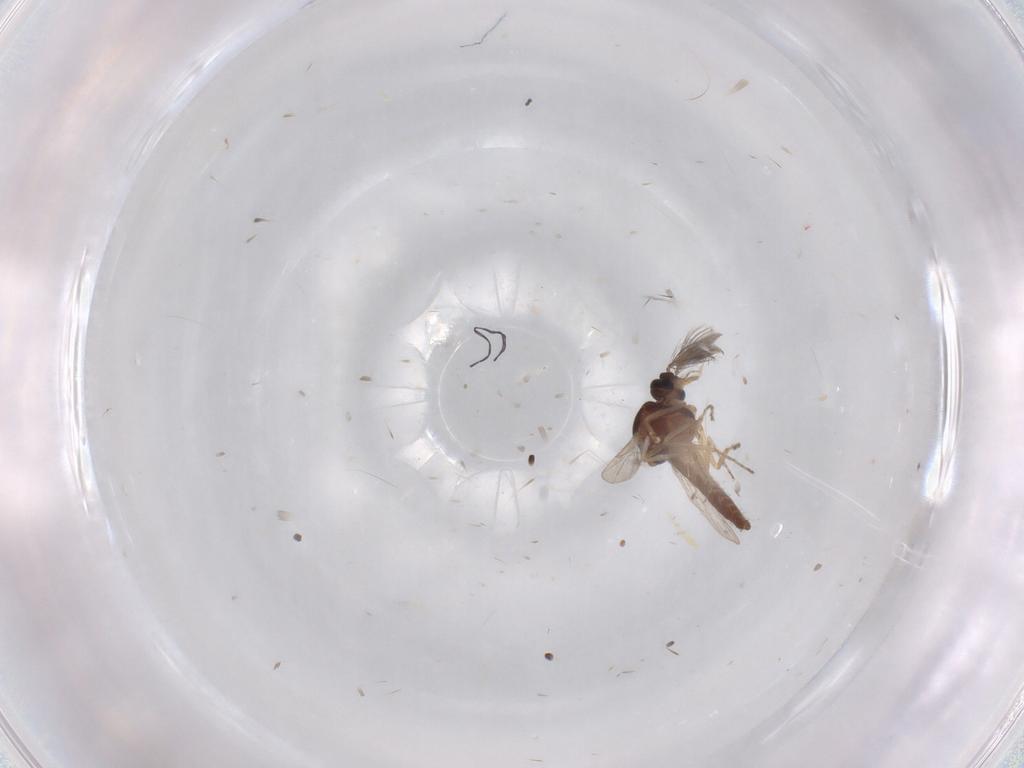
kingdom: Animalia
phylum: Arthropoda
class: Insecta
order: Diptera
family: Ceratopogonidae
